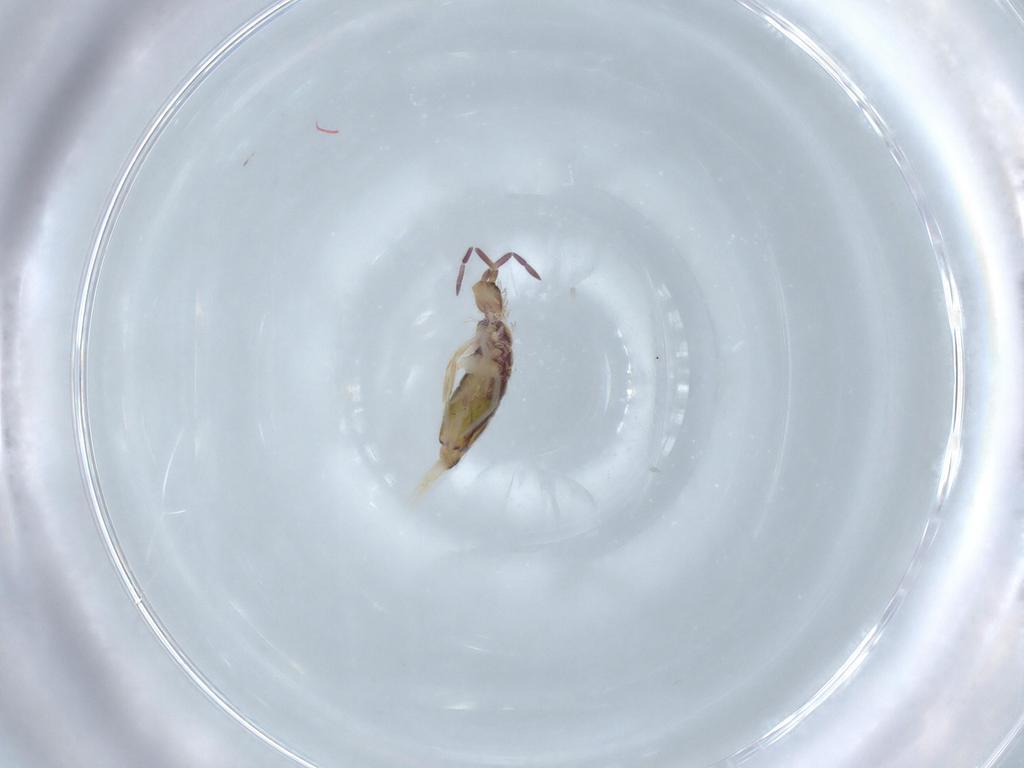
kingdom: Animalia
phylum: Arthropoda
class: Collembola
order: Entomobryomorpha
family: Entomobryidae
